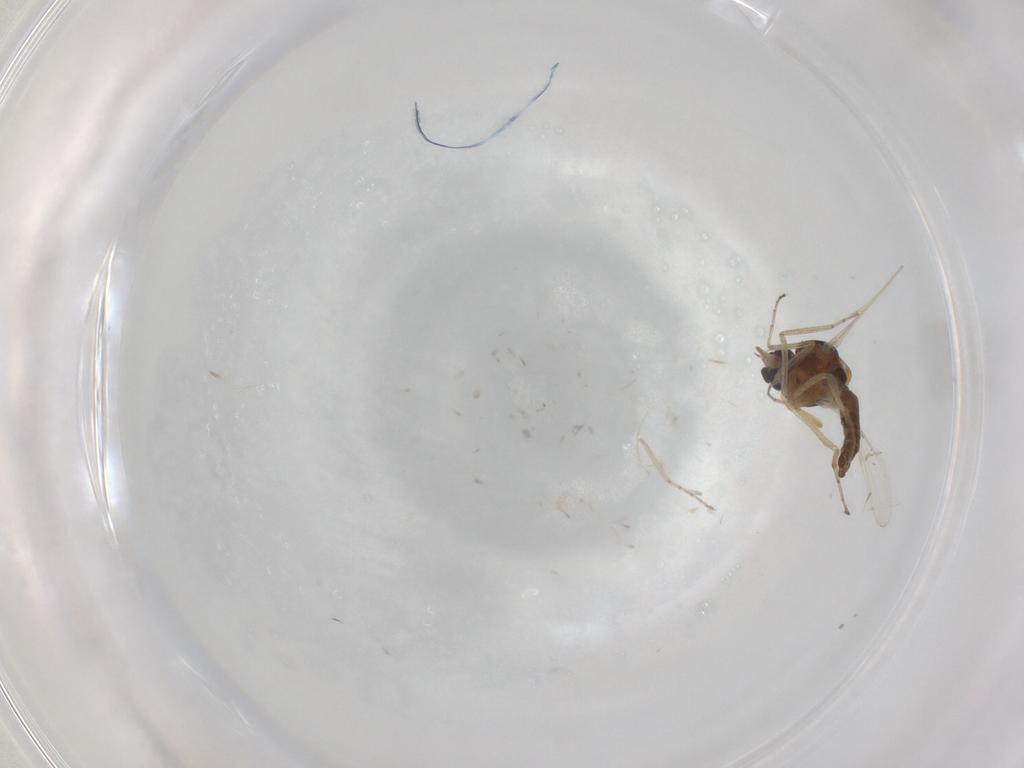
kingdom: Animalia
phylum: Arthropoda
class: Insecta
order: Diptera
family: Ceratopogonidae
